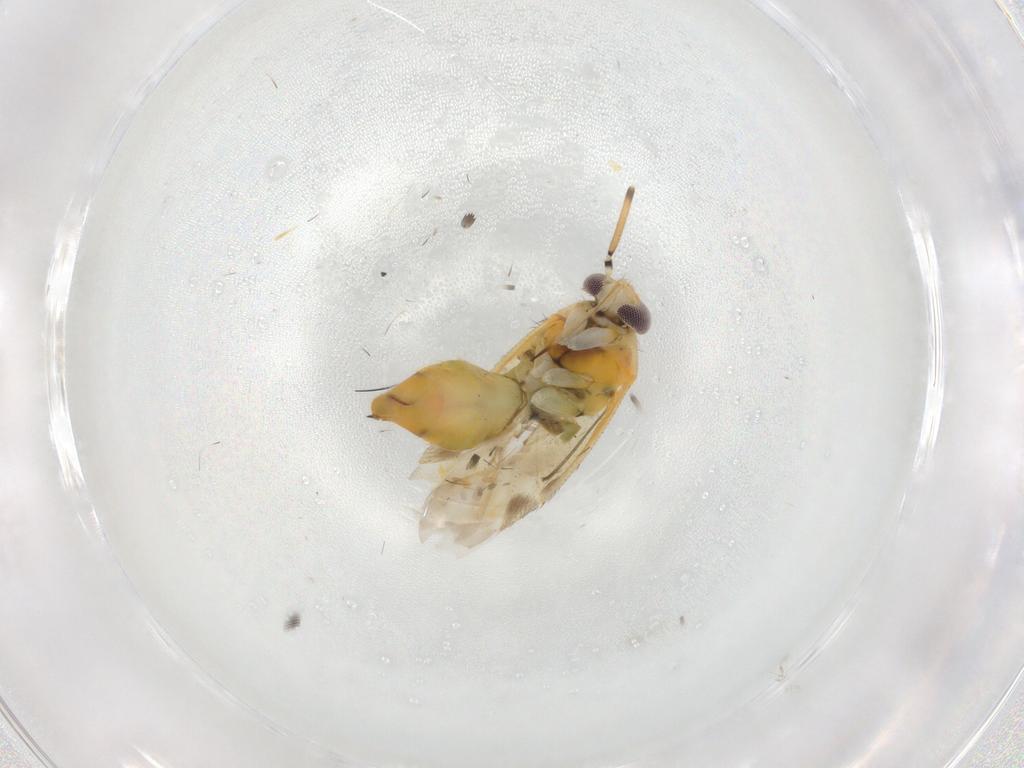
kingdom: Animalia
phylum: Arthropoda
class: Insecta
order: Hemiptera
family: Miridae
